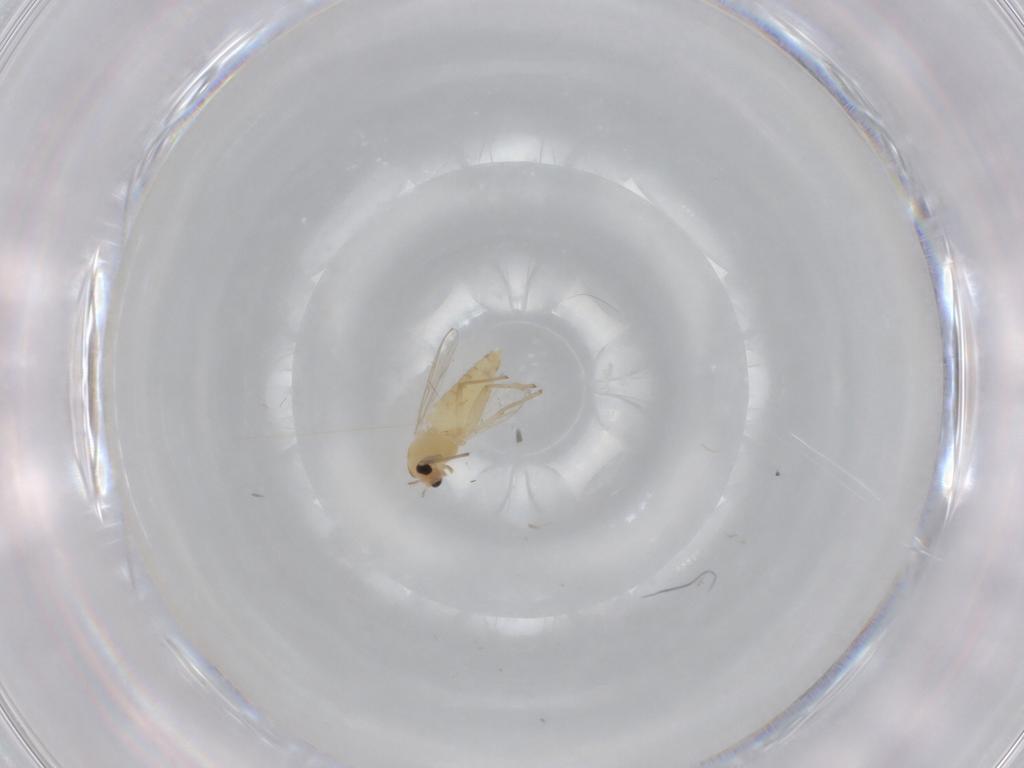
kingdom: Animalia
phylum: Arthropoda
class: Insecta
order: Diptera
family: Chironomidae
